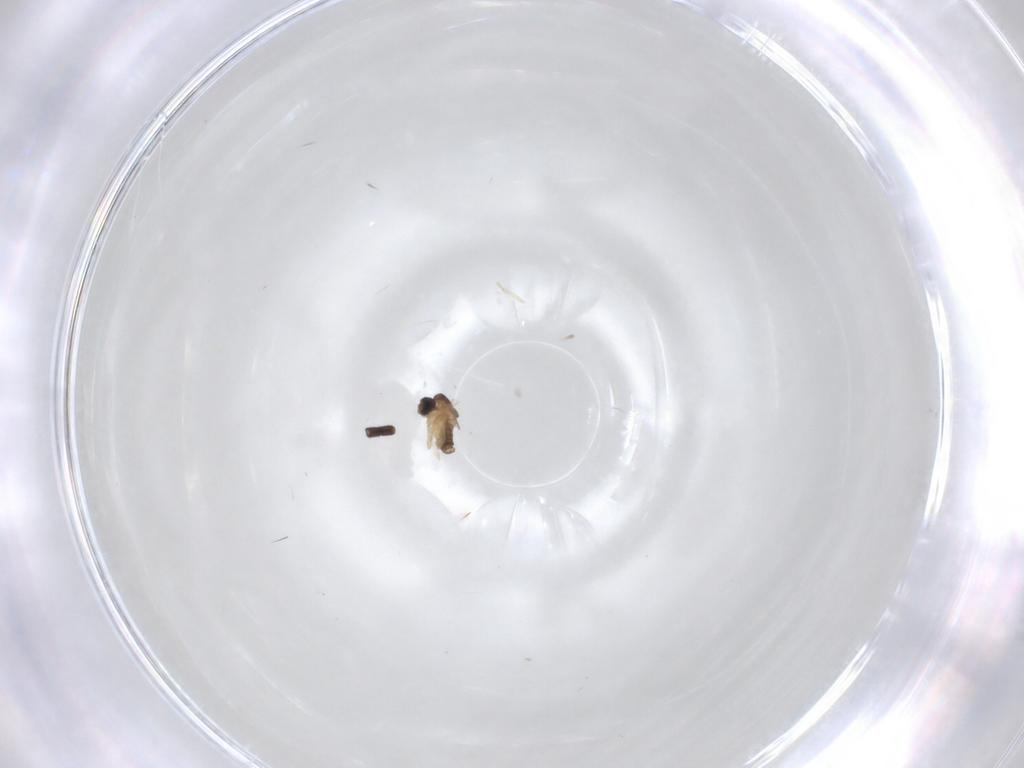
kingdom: Animalia
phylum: Arthropoda
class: Insecta
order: Diptera
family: Cecidomyiidae
